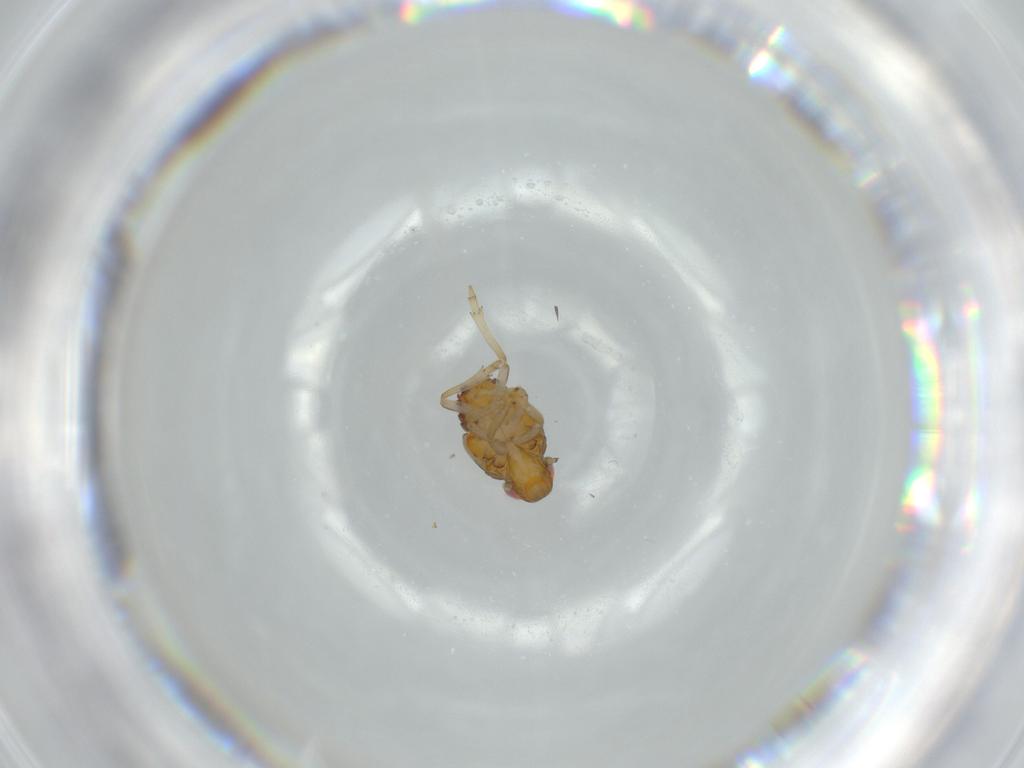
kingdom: Animalia
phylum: Arthropoda
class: Insecta
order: Hemiptera
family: Issidae
